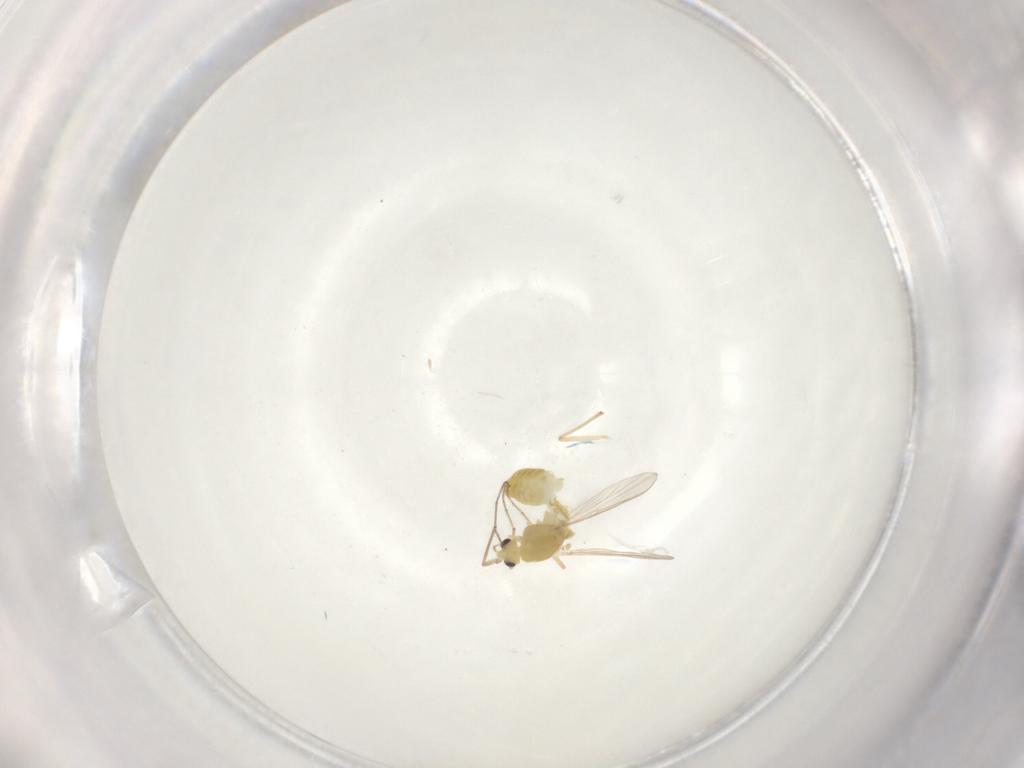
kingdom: Animalia
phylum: Arthropoda
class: Insecta
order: Diptera
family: Chironomidae
